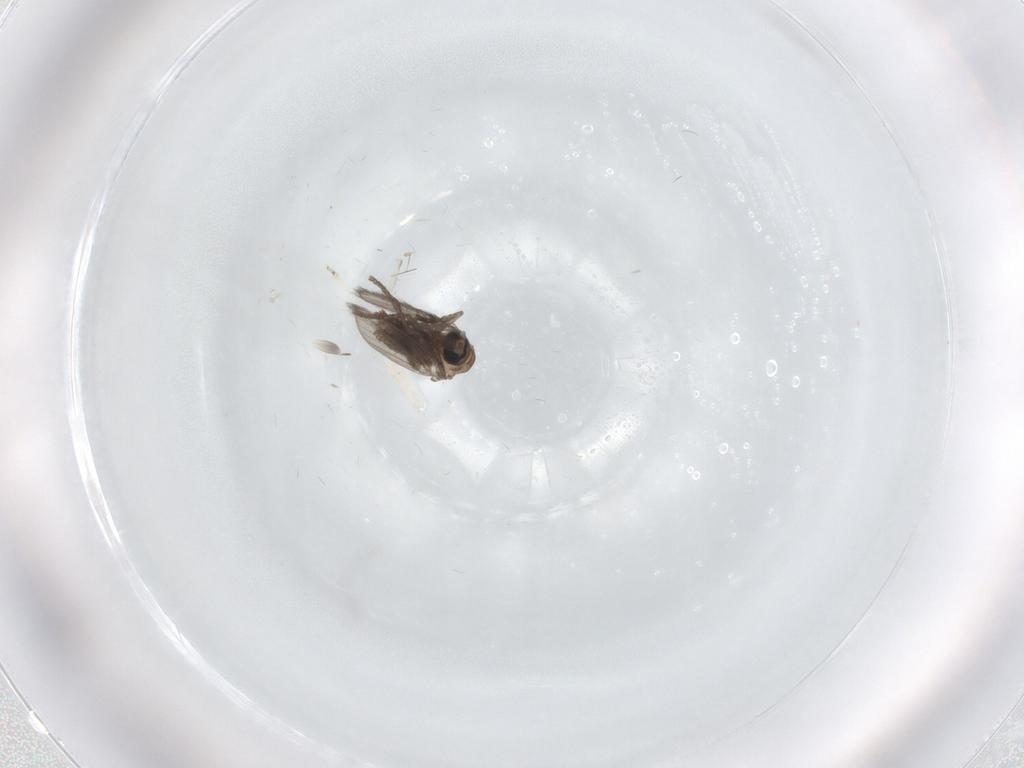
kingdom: Animalia
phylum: Arthropoda
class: Insecta
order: Diptera
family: Psychodidae
